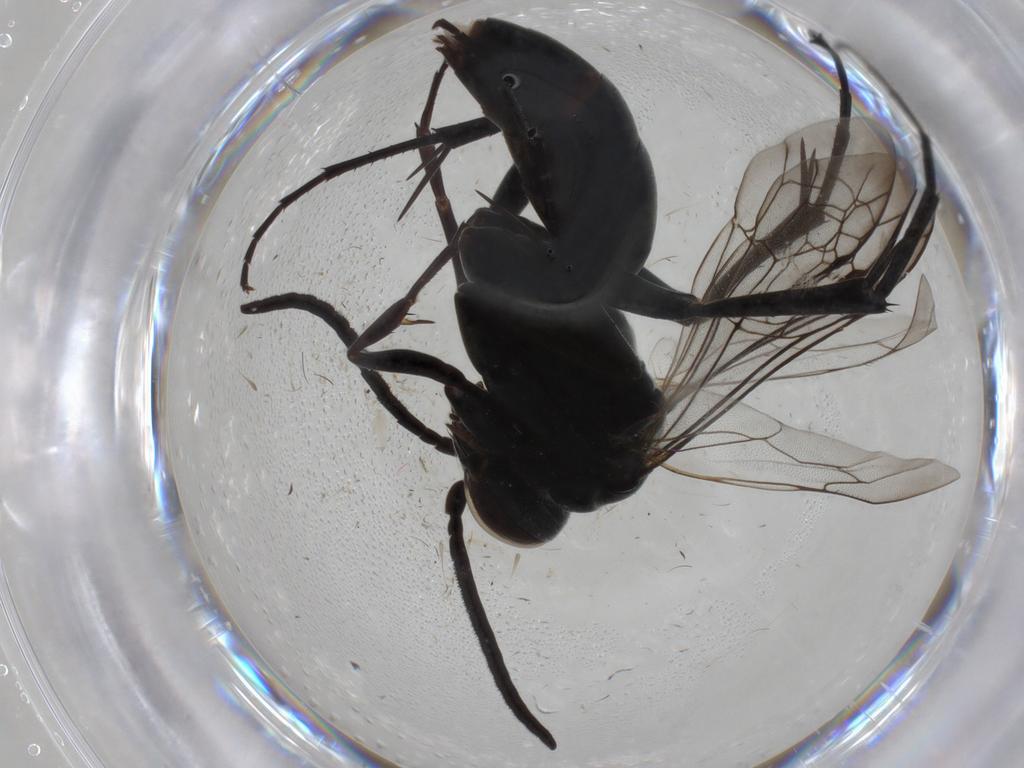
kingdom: Animalia
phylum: Arthropoda
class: Insecta
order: Hymenoptera
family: Pompilidae
